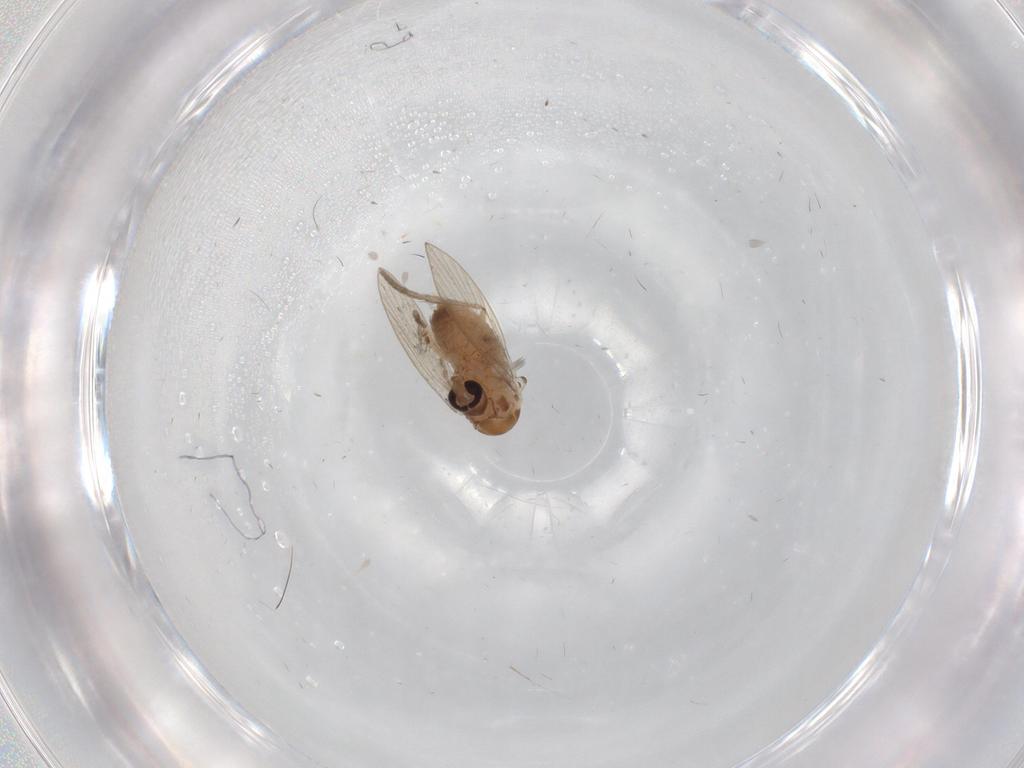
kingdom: Animalia
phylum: Arthropoda
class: Insecta
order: Diptera
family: Psychodidae
